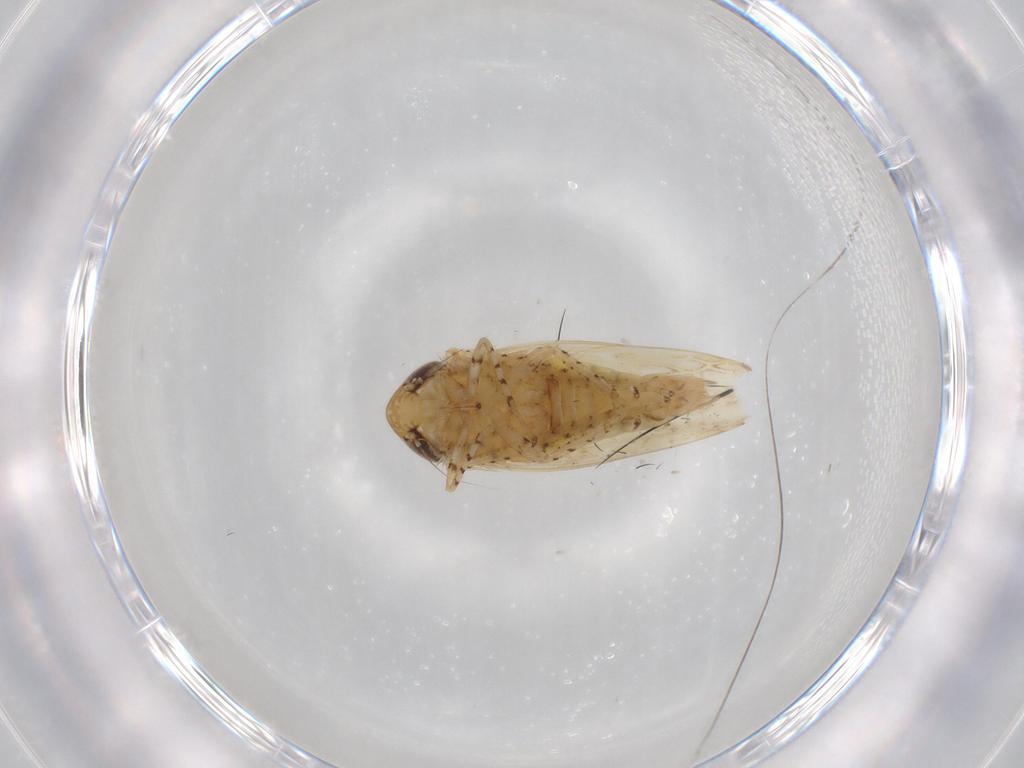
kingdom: Animalia
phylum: Arthropoda
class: Insecta
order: Hemiptera
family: Cicadellidae
